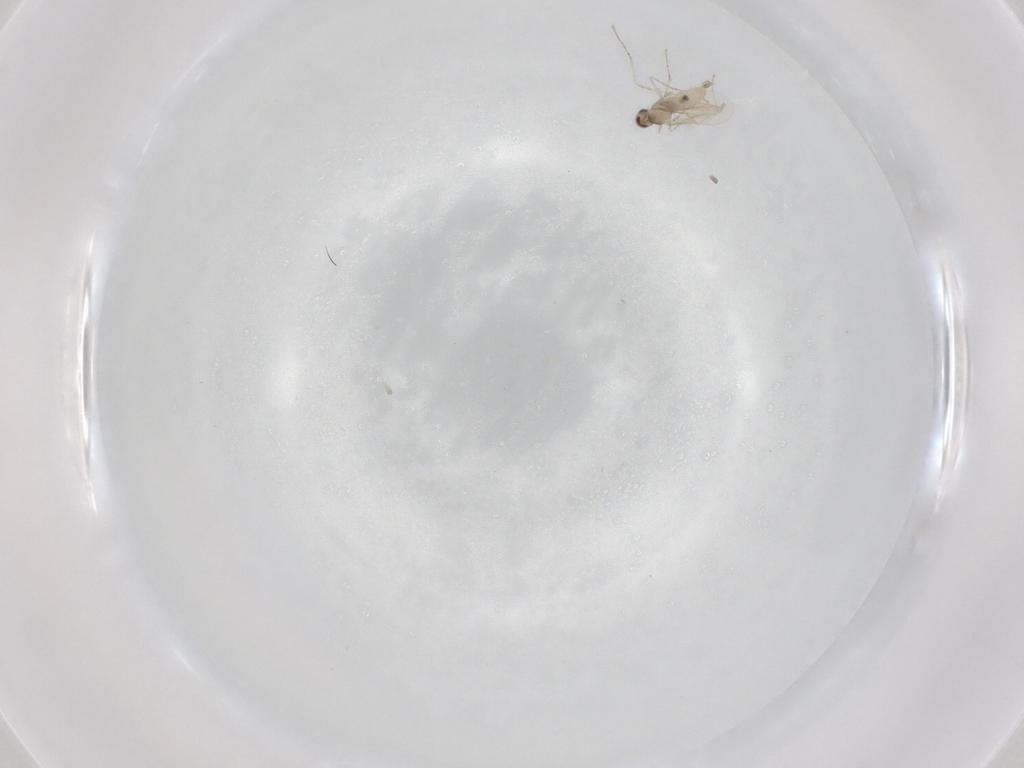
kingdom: Animalia
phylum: Arthropoda
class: Insecta
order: Diptera
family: Cecidomyiidae
